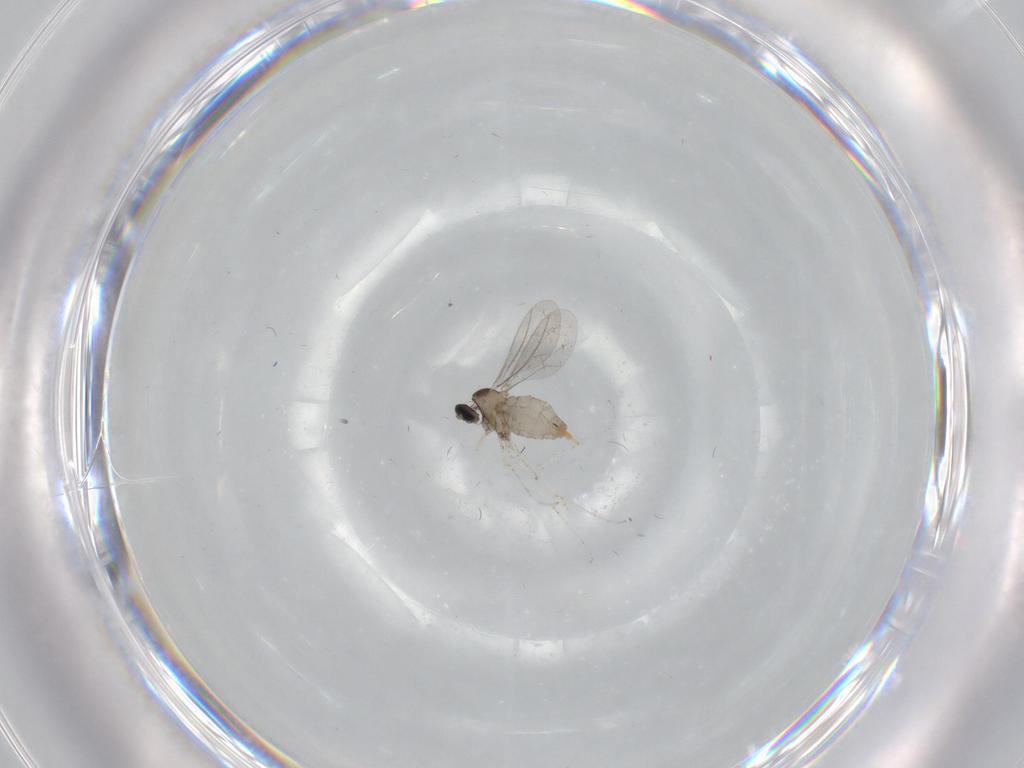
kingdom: Animalia
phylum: Arthropoda
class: Insecta
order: Diptera
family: Cecidomyiidae
